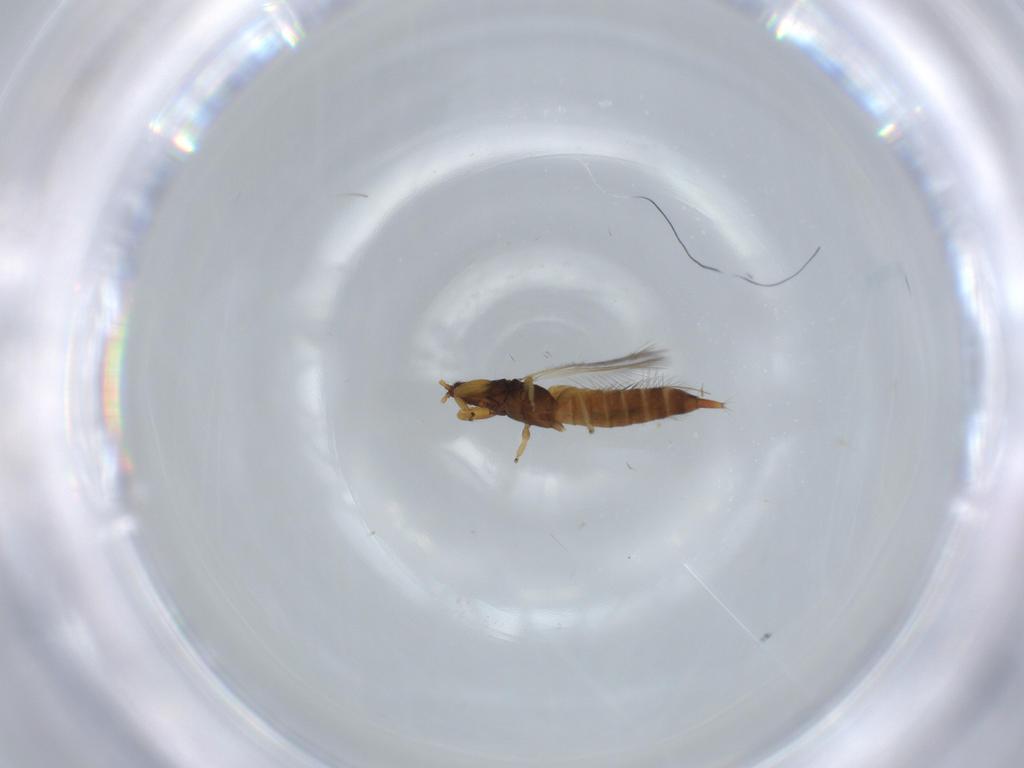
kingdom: Animalia
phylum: Arthropoda
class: Insecta
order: Thysanoptera
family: Phlaeothripidae
